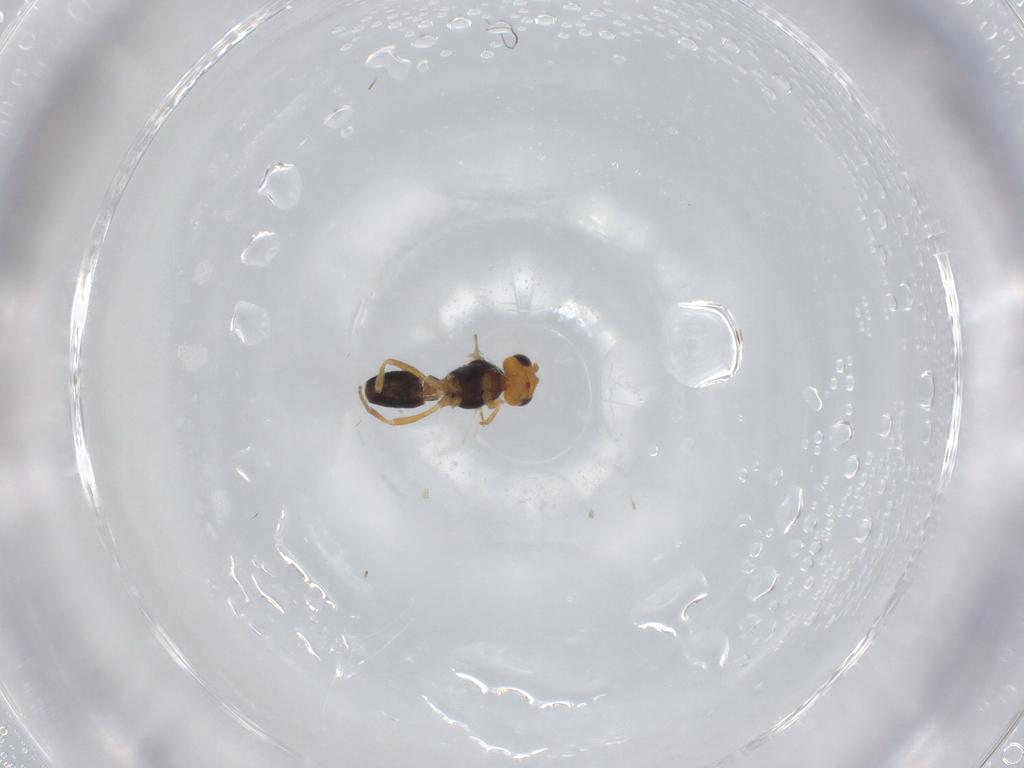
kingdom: Animalia
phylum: Arthropoda
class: Insecta
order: Hymenoptera
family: Braconidae
